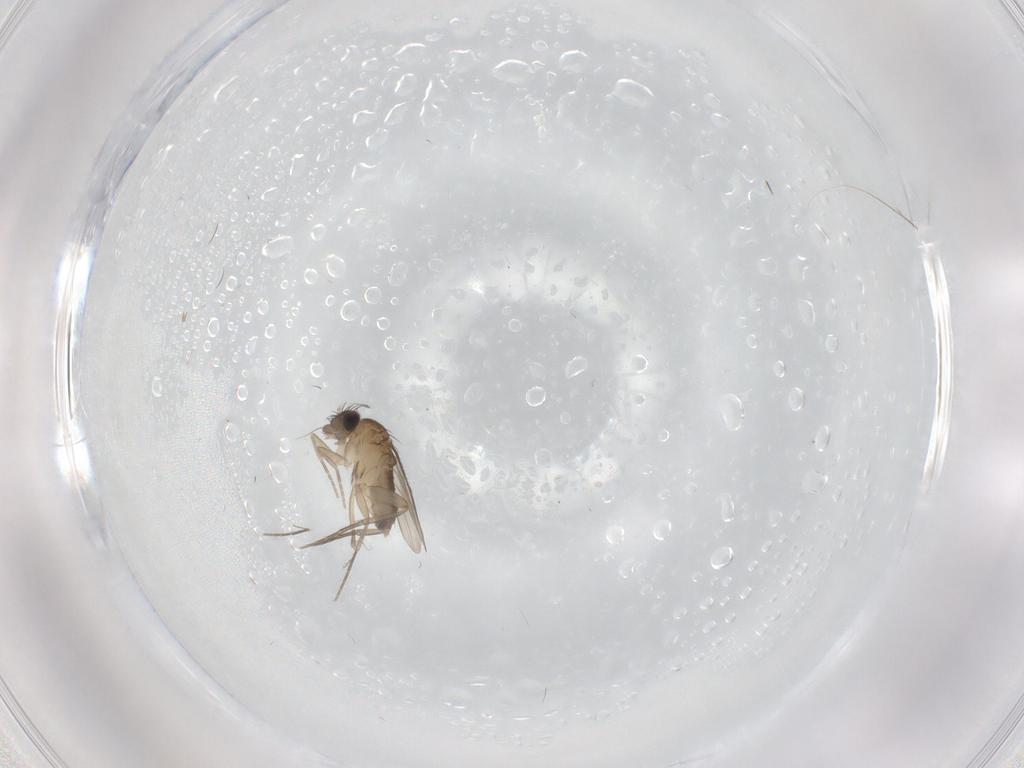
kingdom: Animalia
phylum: Arthropoda
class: Insecta
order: Diptera
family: Phoridae
